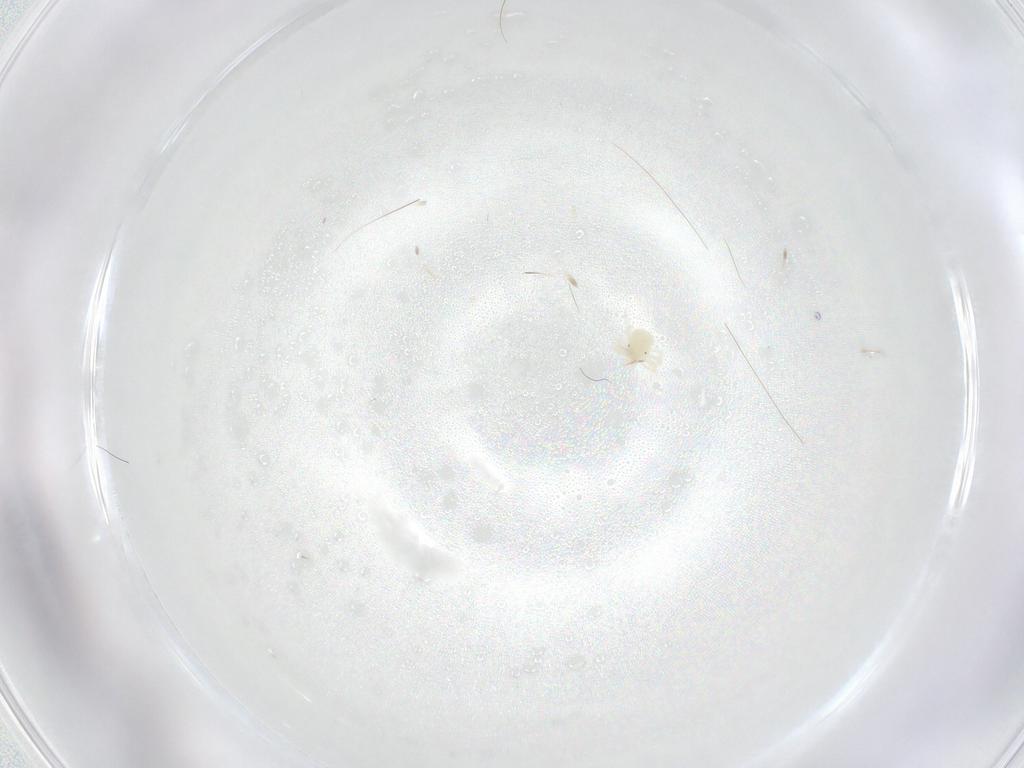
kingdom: Animalia
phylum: Arthropoda
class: Arachnida
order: Trombidiformes
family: Anystidae
